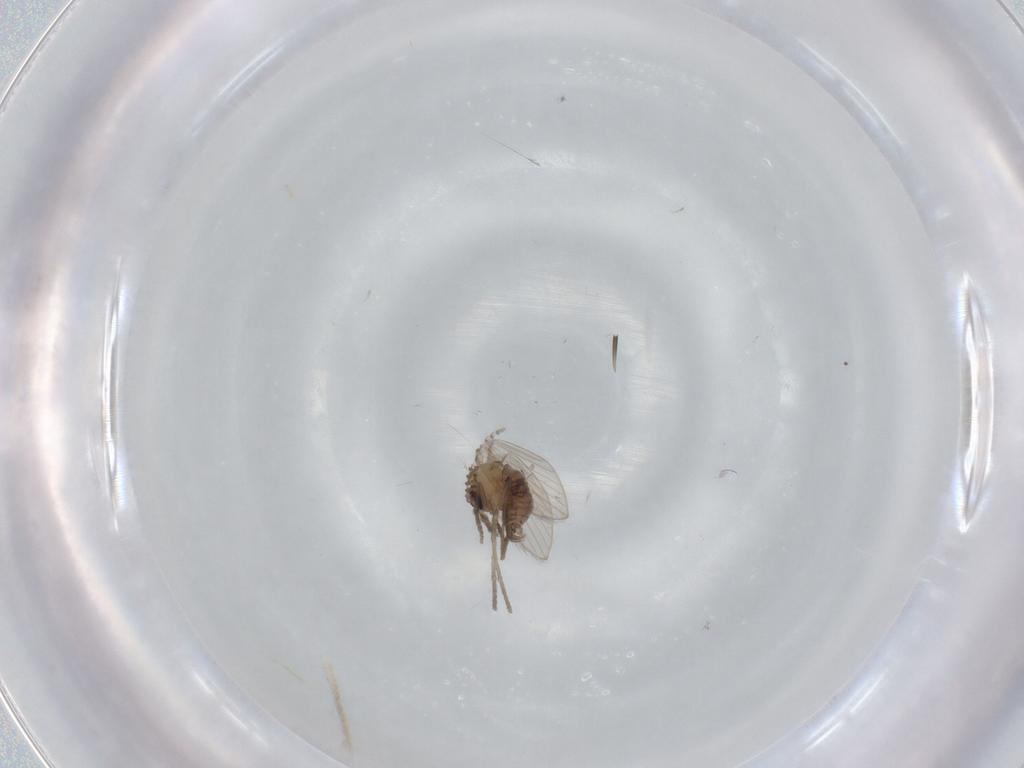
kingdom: Animalia
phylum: Arthropoda
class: Insecta
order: Diptera
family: Psychodidae
